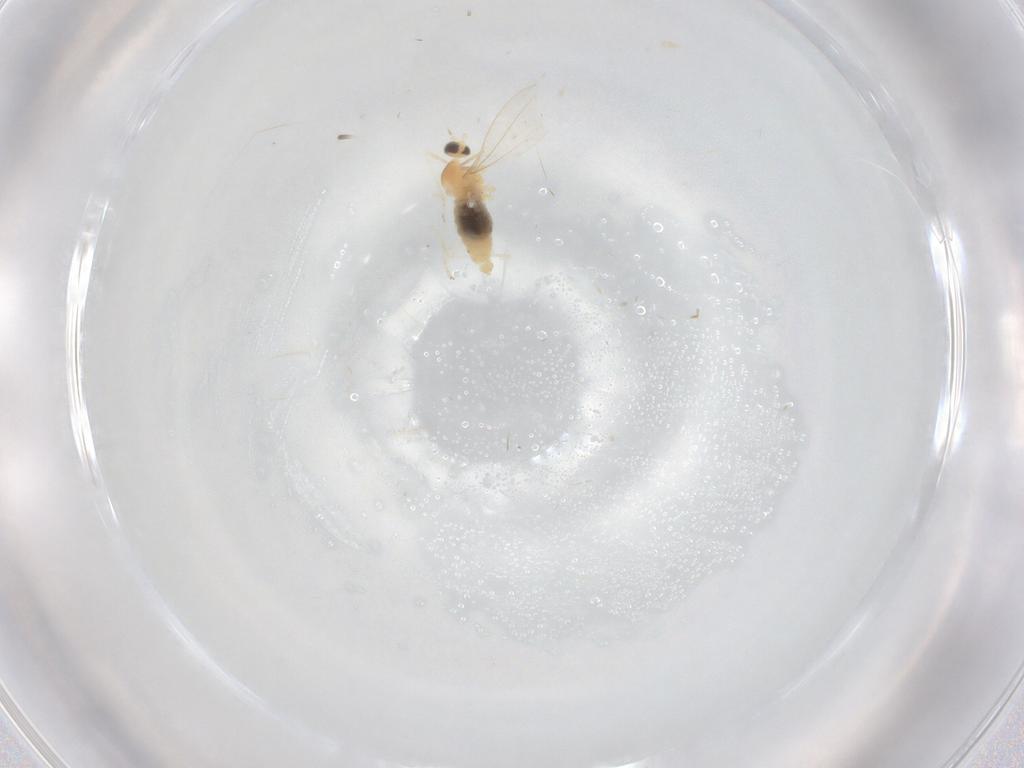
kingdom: Animalia
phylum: Arthropoda
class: Insecta
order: Diptera
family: Cecidomyiidae
